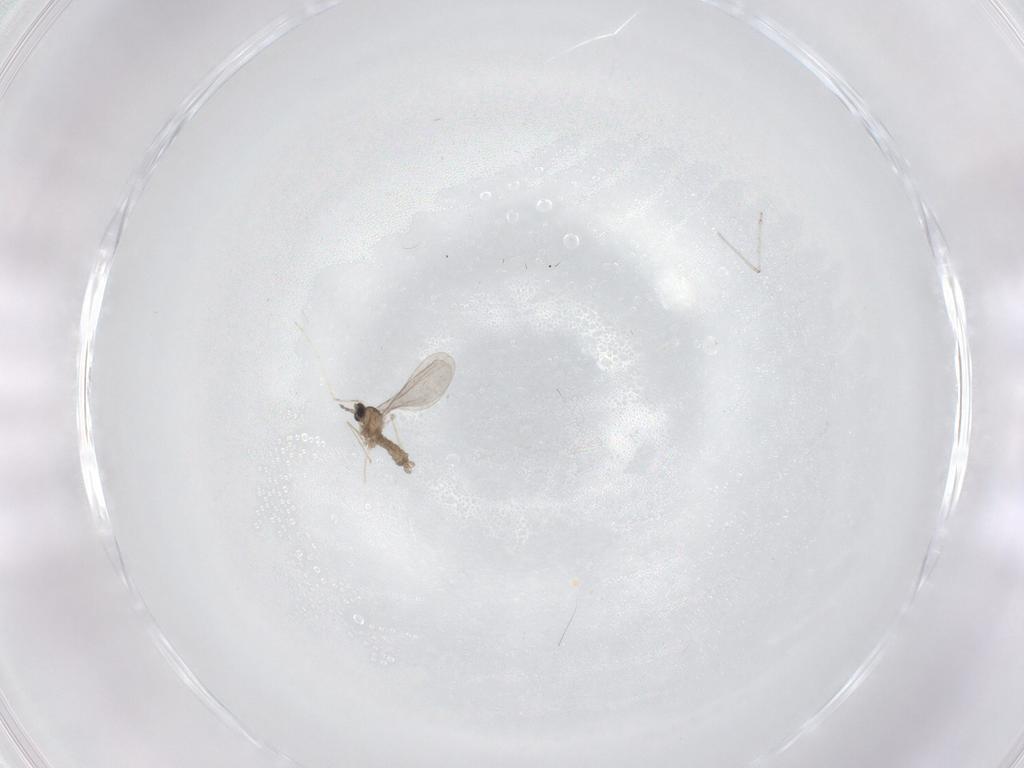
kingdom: Animalia
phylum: Arthropoda
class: Insecta
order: Diptera
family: Cecidomyiidae
